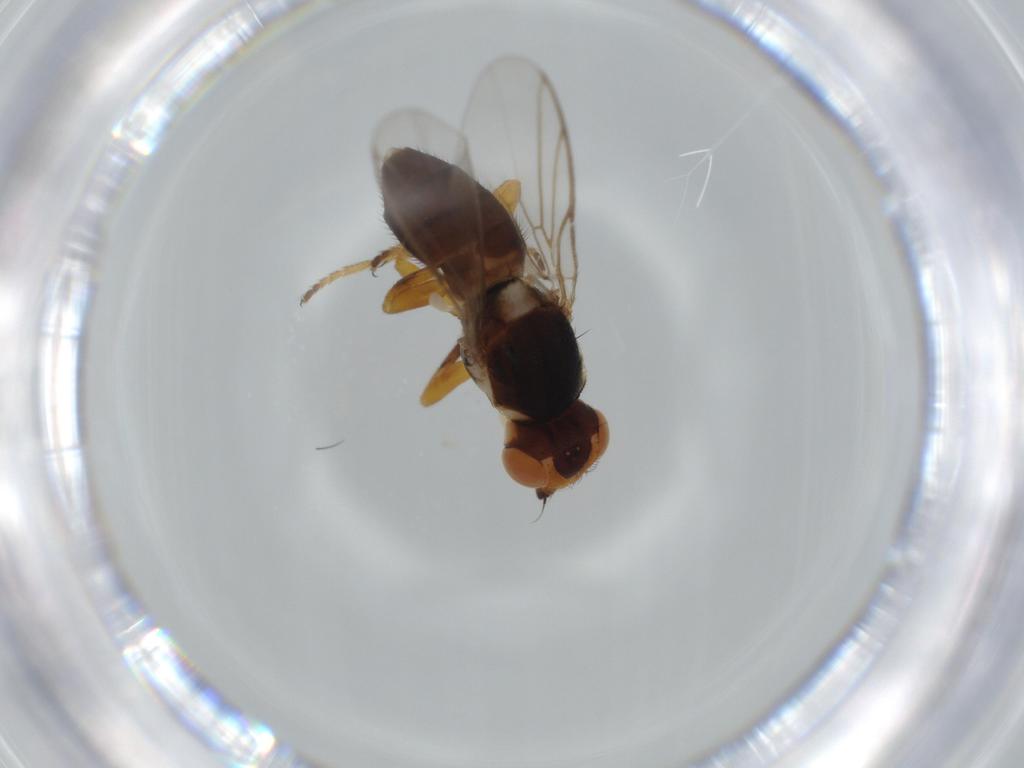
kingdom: Animalia
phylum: Arthropoda
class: Insecta
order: Diptera
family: Chloropidae
